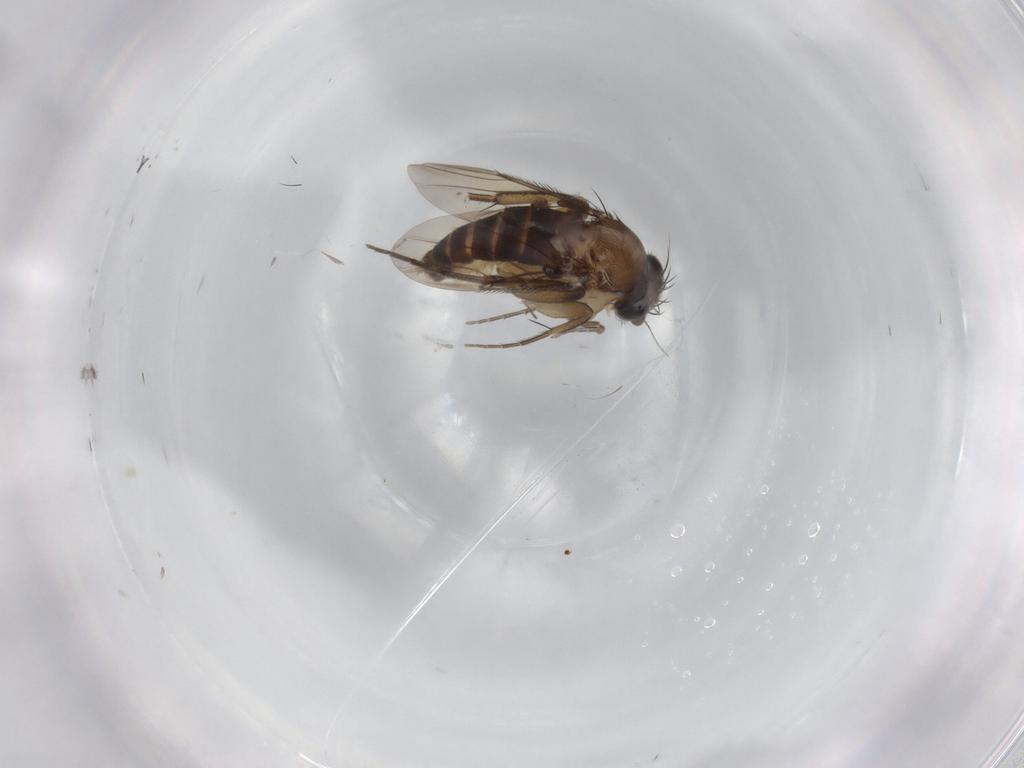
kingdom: Animalia
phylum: Arthropoda
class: Insecta
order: Diptera
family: Phoridae
